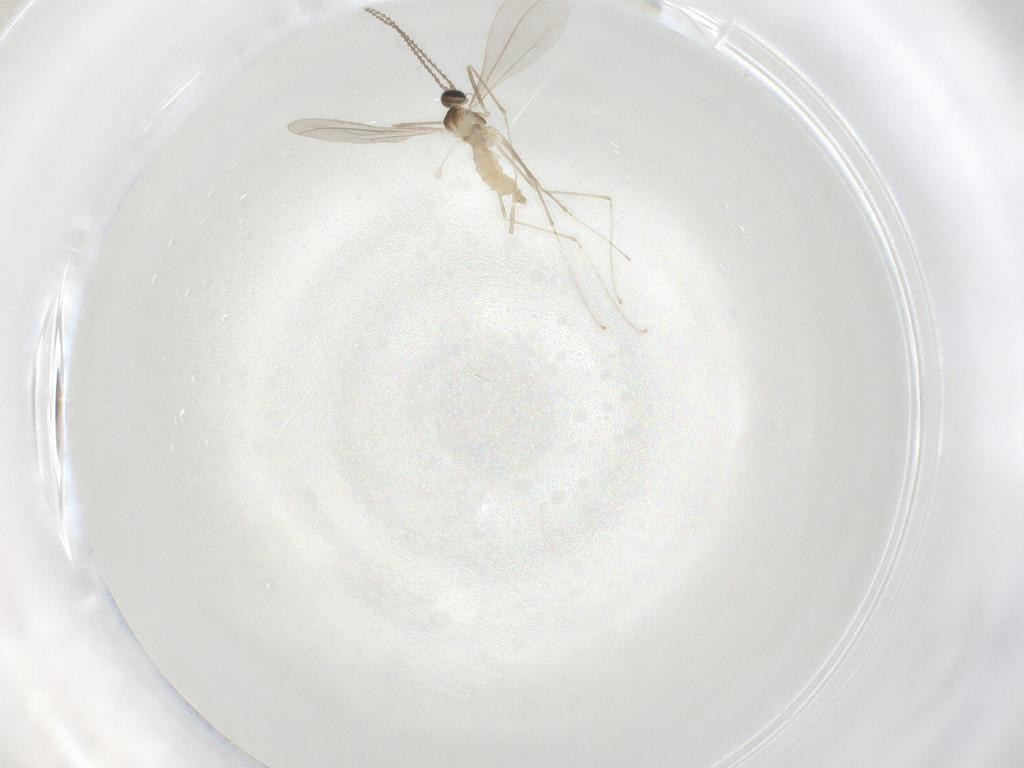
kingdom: Animalia
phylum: Arthropoda
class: Insecta
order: Diptera
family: Cecidomyiidae
